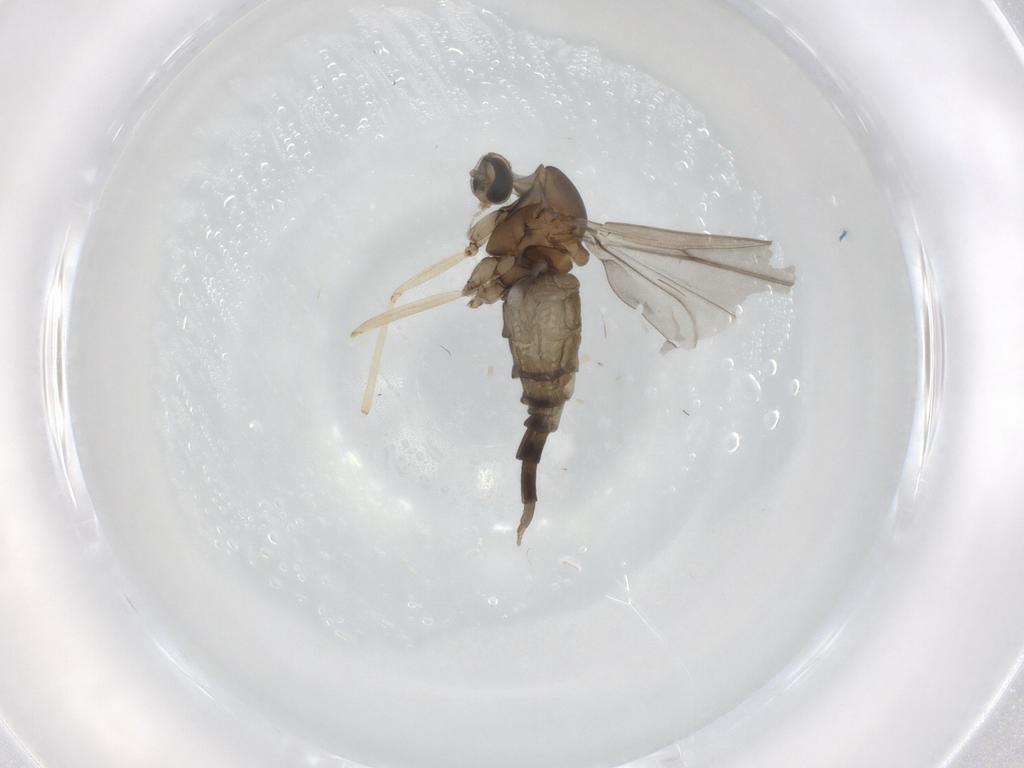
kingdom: Animalia
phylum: Arthropoda
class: Insecta
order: Diptera
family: Cecidomyiidae
